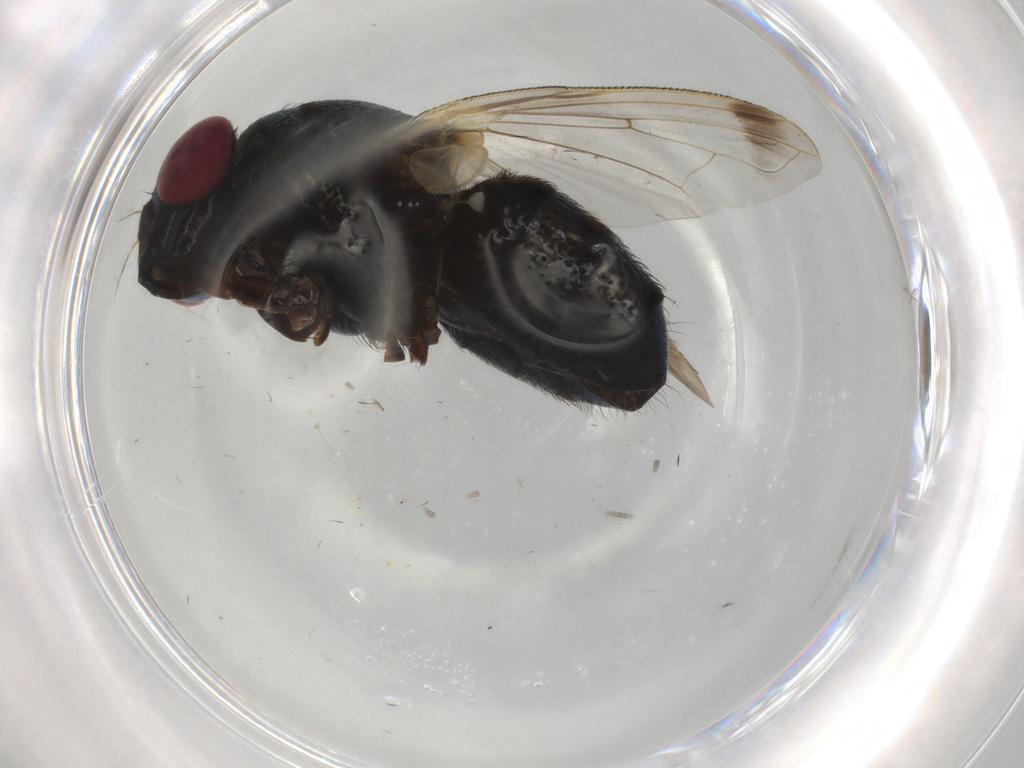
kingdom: Animalia
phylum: Arthropoda
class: Insecta
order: Diptera
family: Calliphoridae
